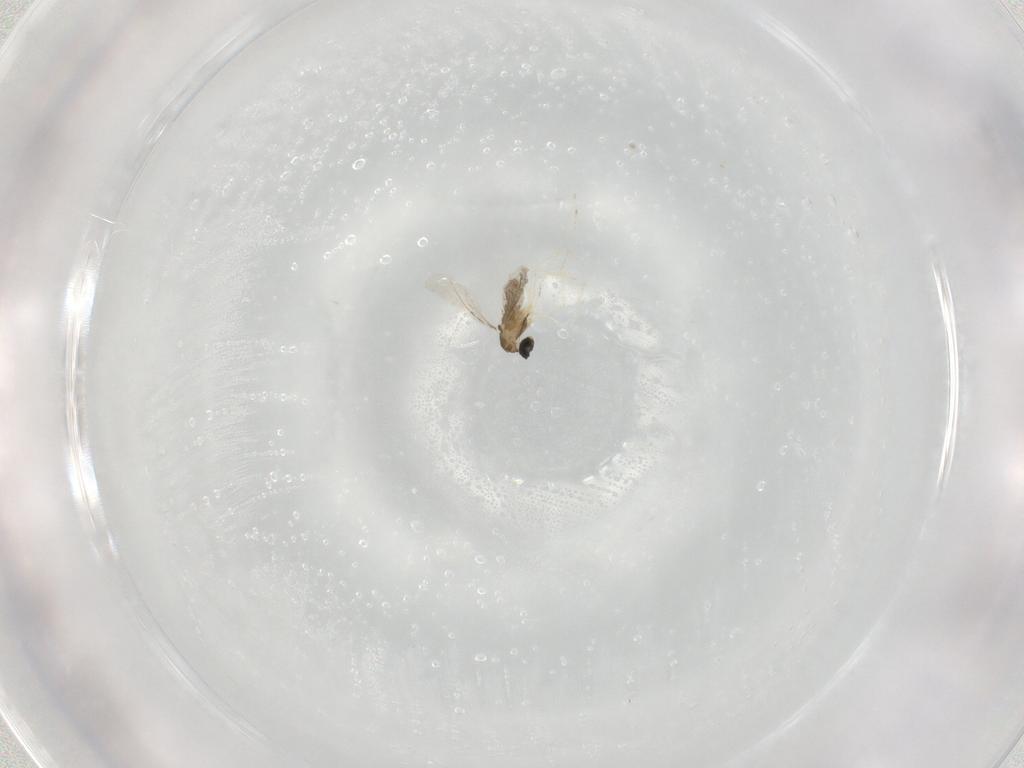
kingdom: Animalia
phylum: Arthropoda
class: Insecta
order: Diptera
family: Cecidomyiidae
